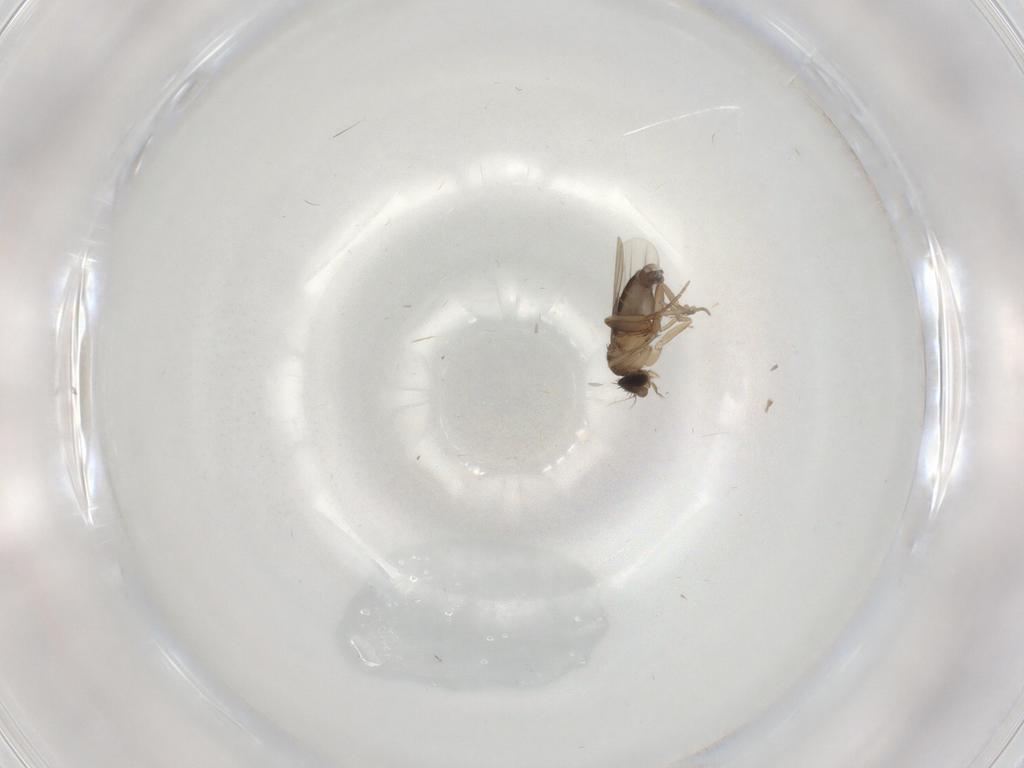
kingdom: Animalia
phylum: Arthropoda
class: Insecta
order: Diptera
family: Phoridae
